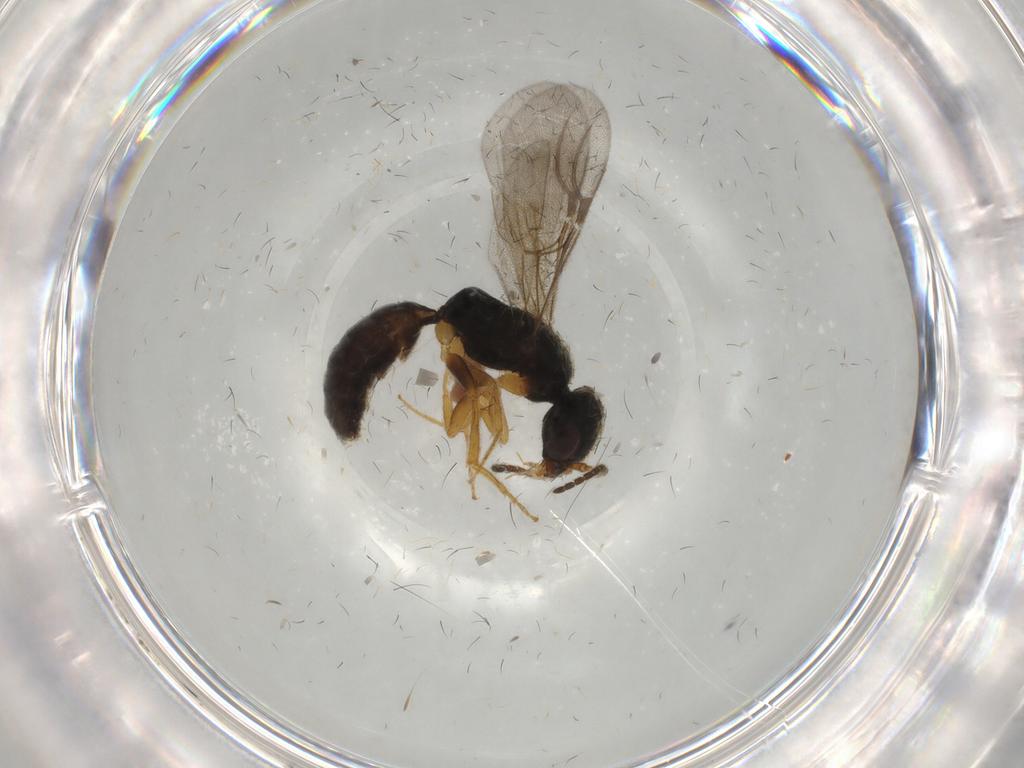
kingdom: Animalia
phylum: Arthropoda
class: Insecta
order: Hymenoptera
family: Bethylidae
